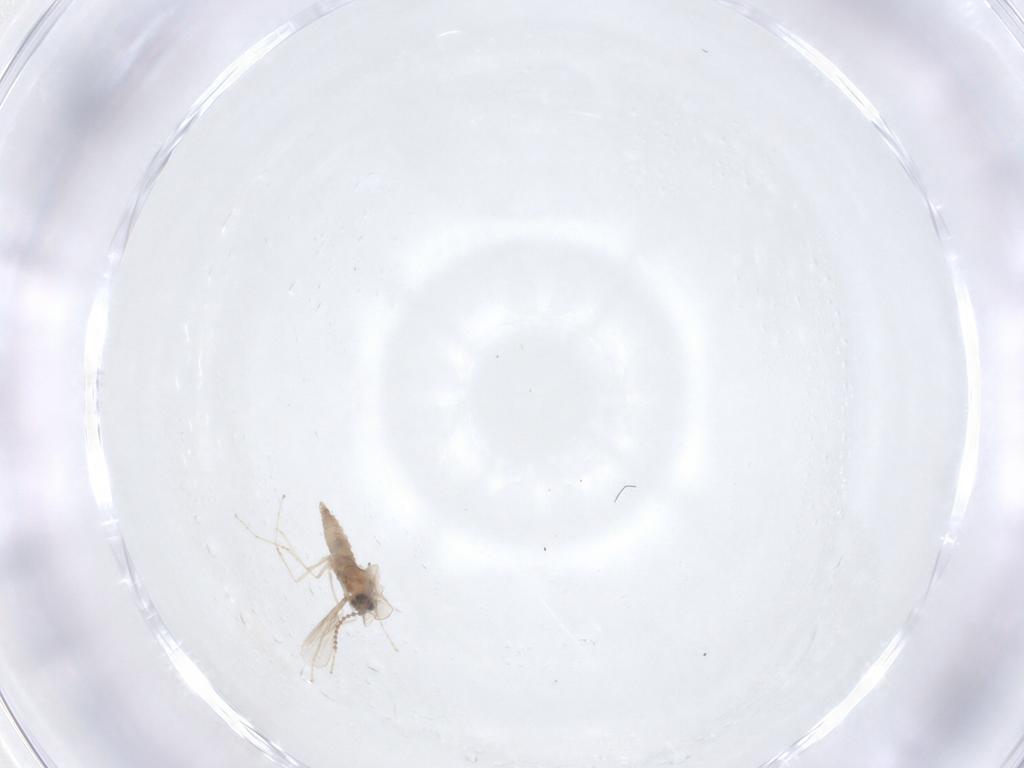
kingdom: Animalia
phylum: Arthropoda
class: Insecta
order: Diptera
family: Cecidomyiidae
